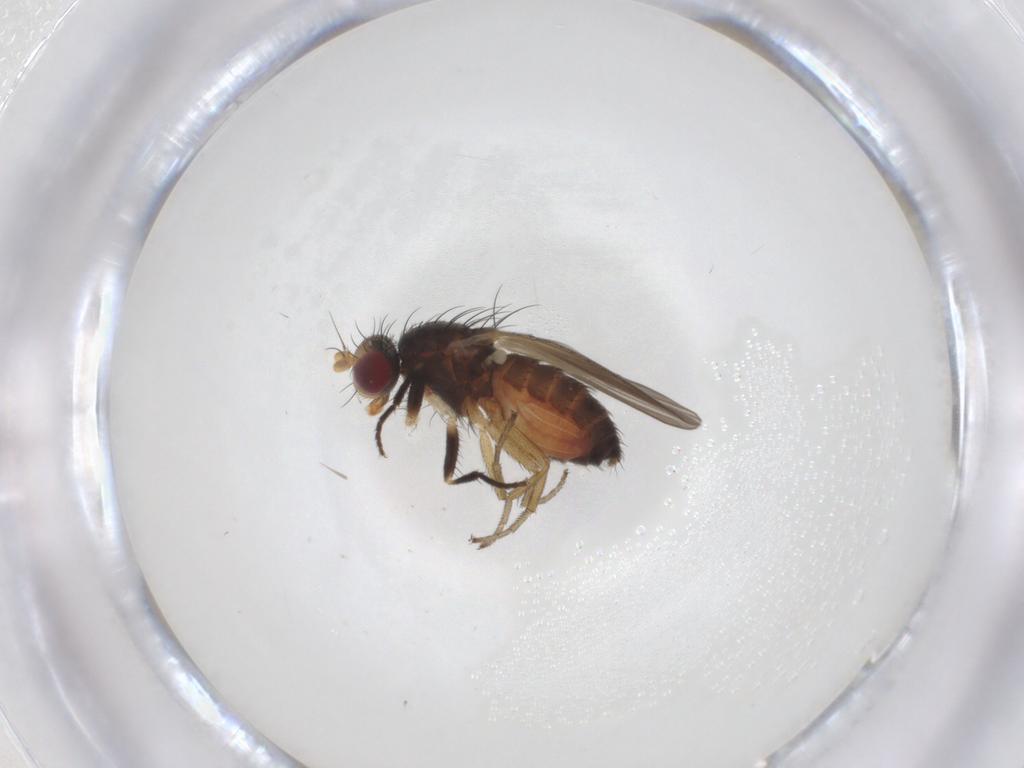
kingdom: Animalia
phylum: Arthropoda
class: Insecta
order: Diptera
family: Heleomyzidae
